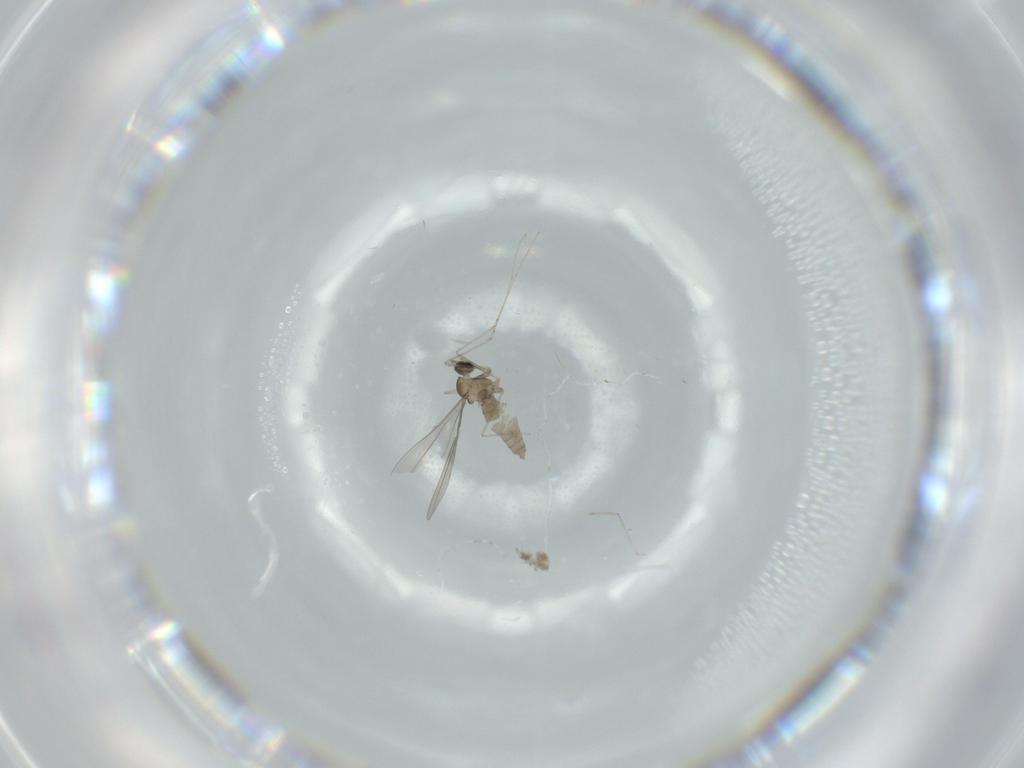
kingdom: Animalia
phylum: Arthropoda
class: Insecta
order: Diptera
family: Cecidomyiidae
